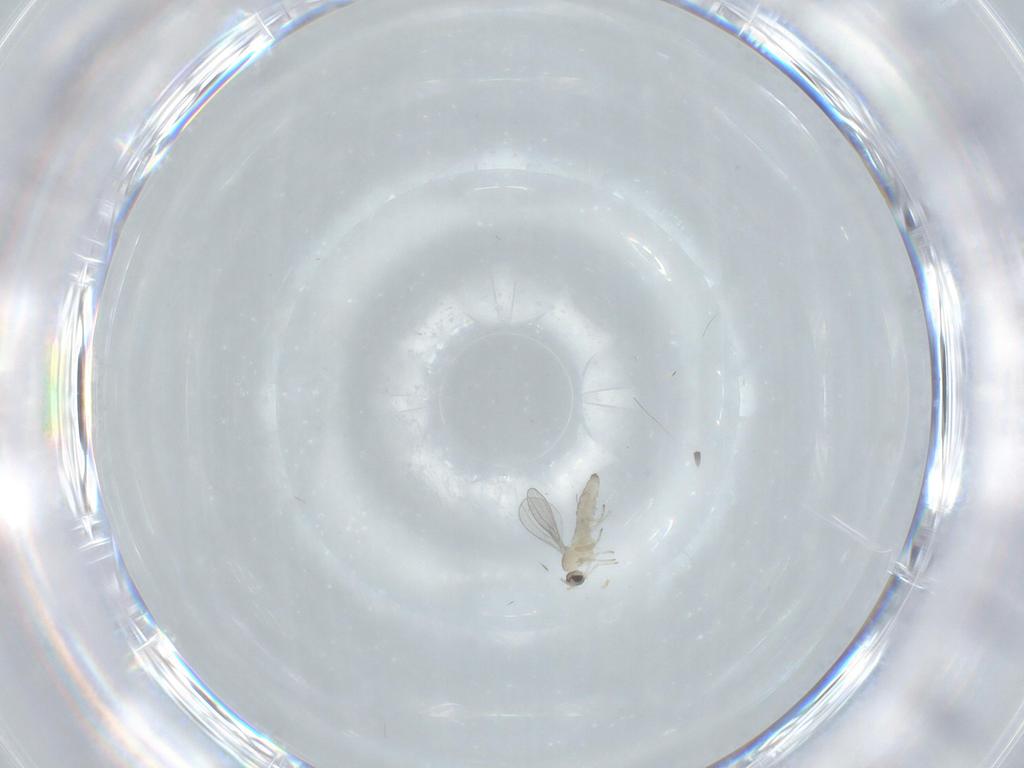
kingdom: Animalia
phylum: Arthropoda
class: Insecta
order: Diptera
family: Cecidomyiidae
